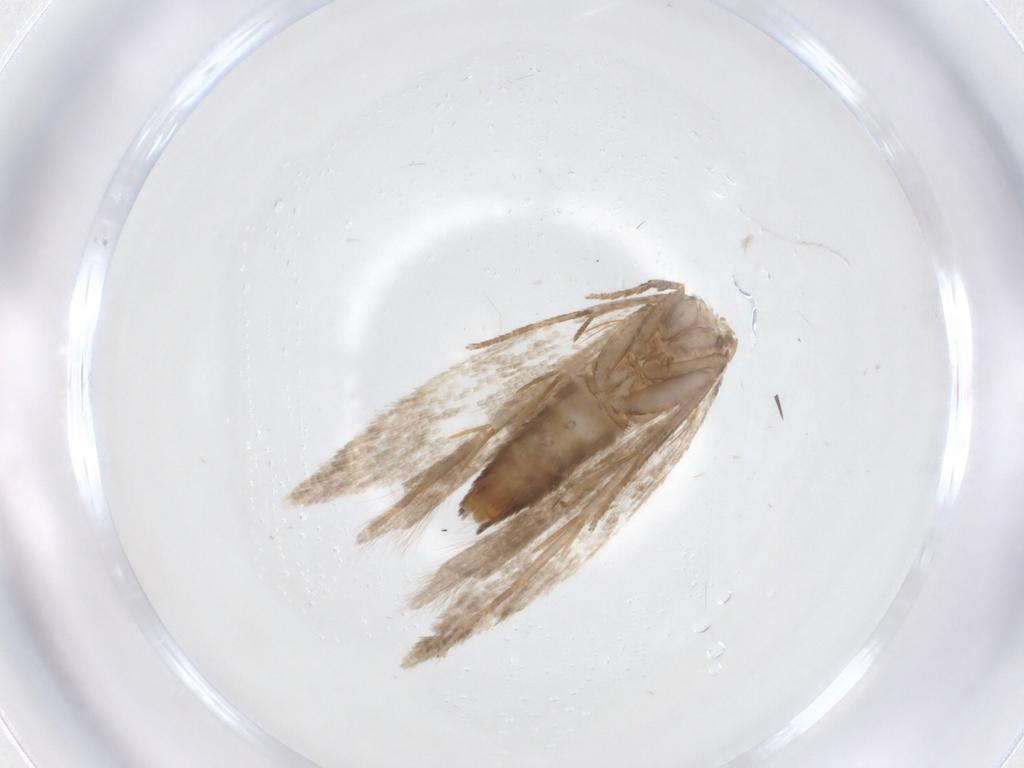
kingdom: Animalia
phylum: Arthropoda
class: Insecta
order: Lepidoptera
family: Gelechiidae
